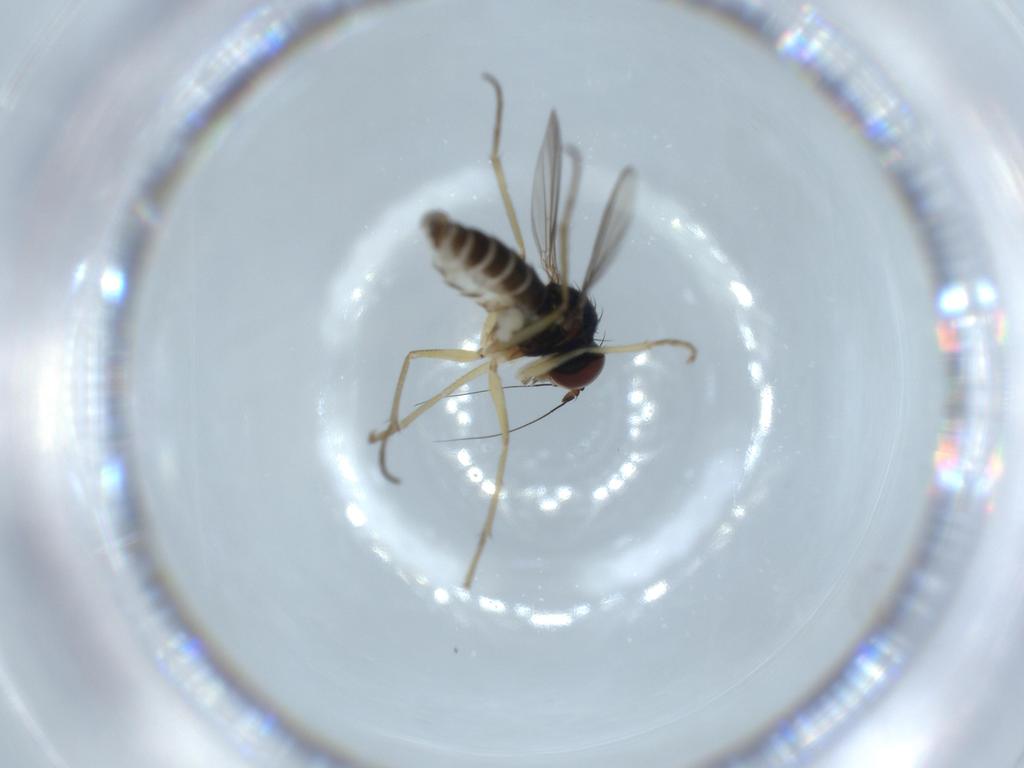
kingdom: Animalia
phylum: Arthropoda
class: Insecta
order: Diptera
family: Dolichopodidae
